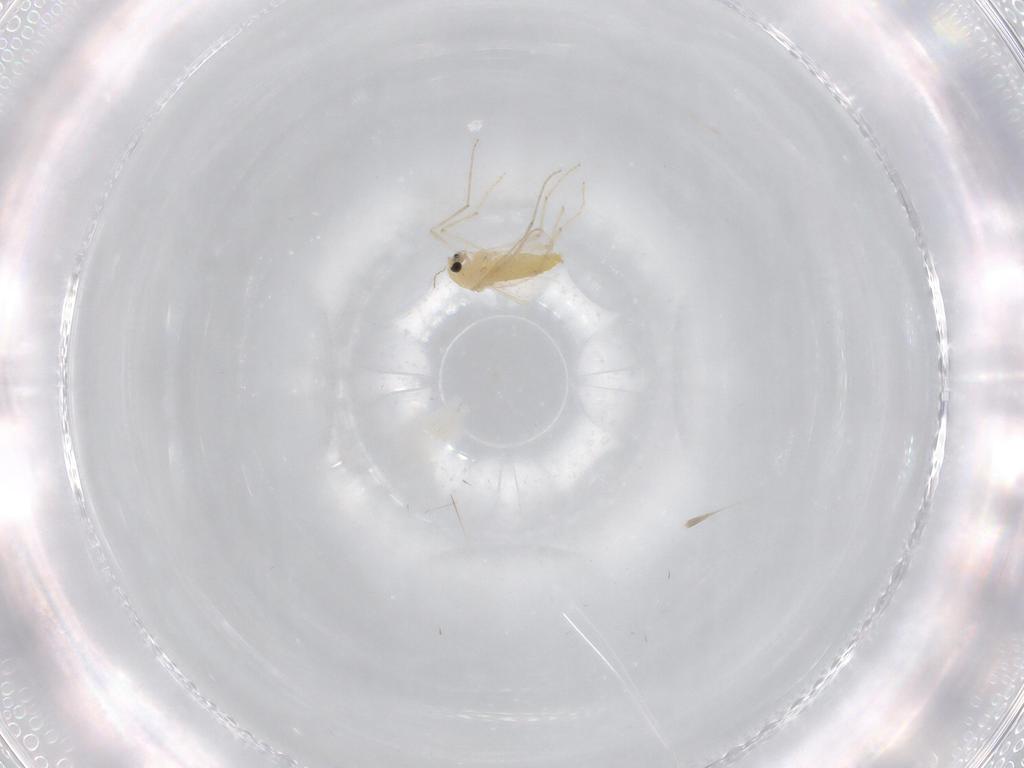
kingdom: Animalia
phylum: Arthropoda
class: Insecta
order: Diptera
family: Chironomidae
